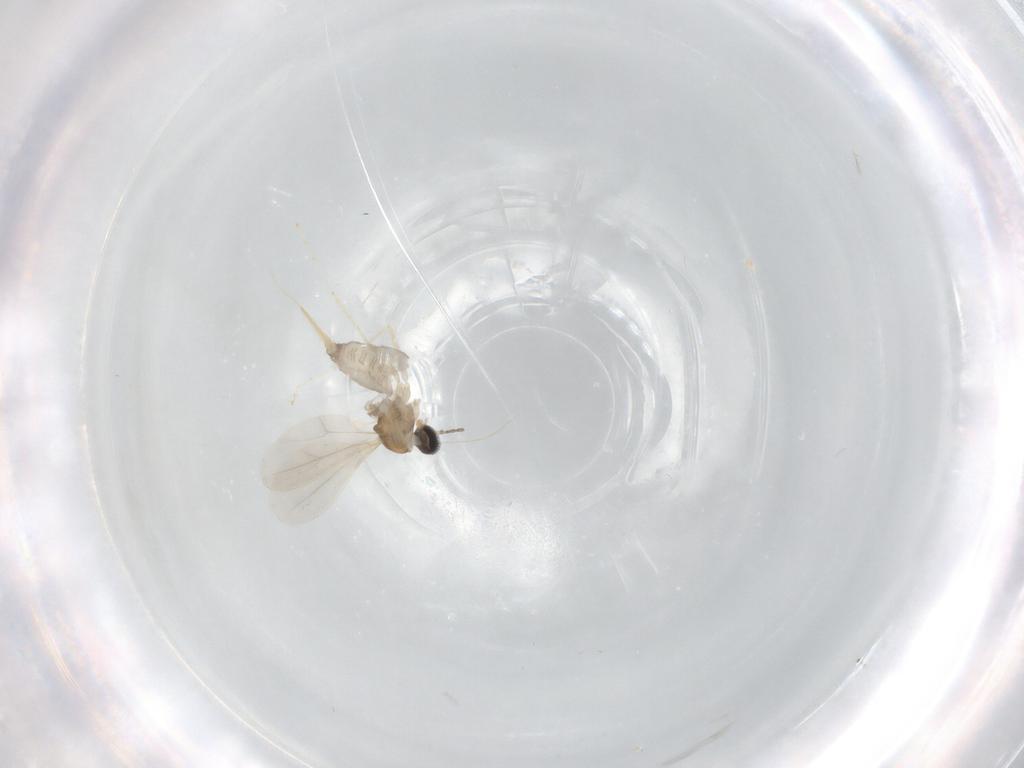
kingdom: Animalia
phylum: Arthropoda
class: Insecta
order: Diptera
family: Cecidomyiidae
